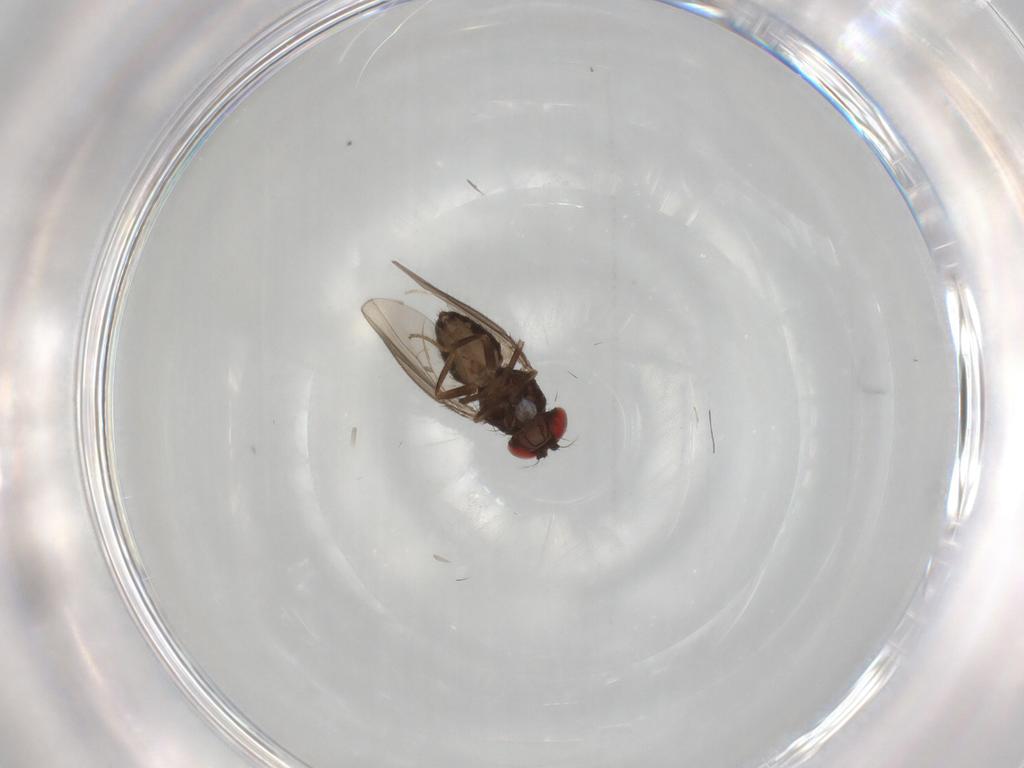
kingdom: Animalia
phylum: Arthropoda
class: Insecta
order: Diptera
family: Drosophilidae
